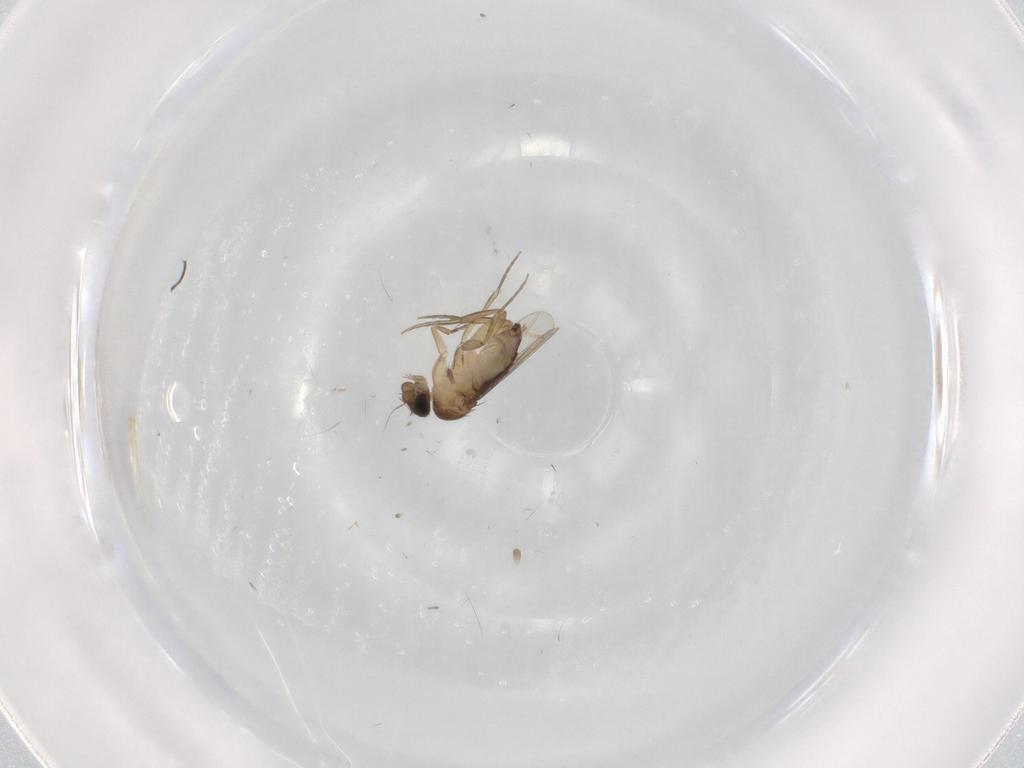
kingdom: Animalia
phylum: Arthropoda
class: Insecta
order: Diptera
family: Phoridae
